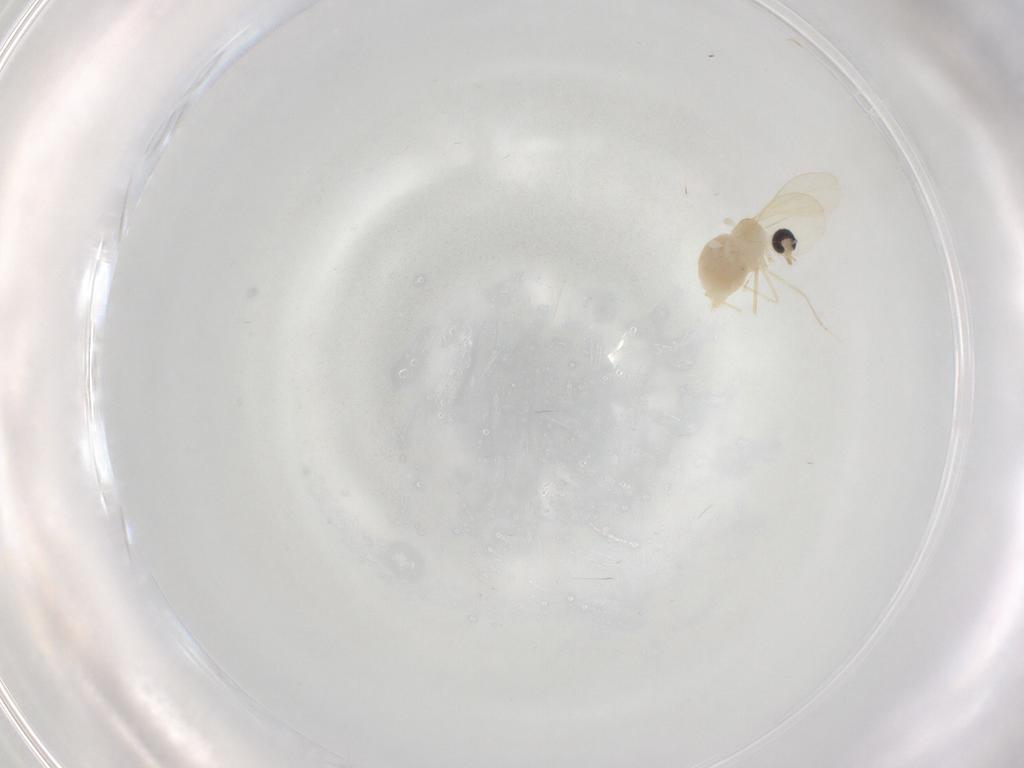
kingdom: Animalia
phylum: Arthropoda
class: Insecta
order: Diptera
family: Cecidomyiidae
